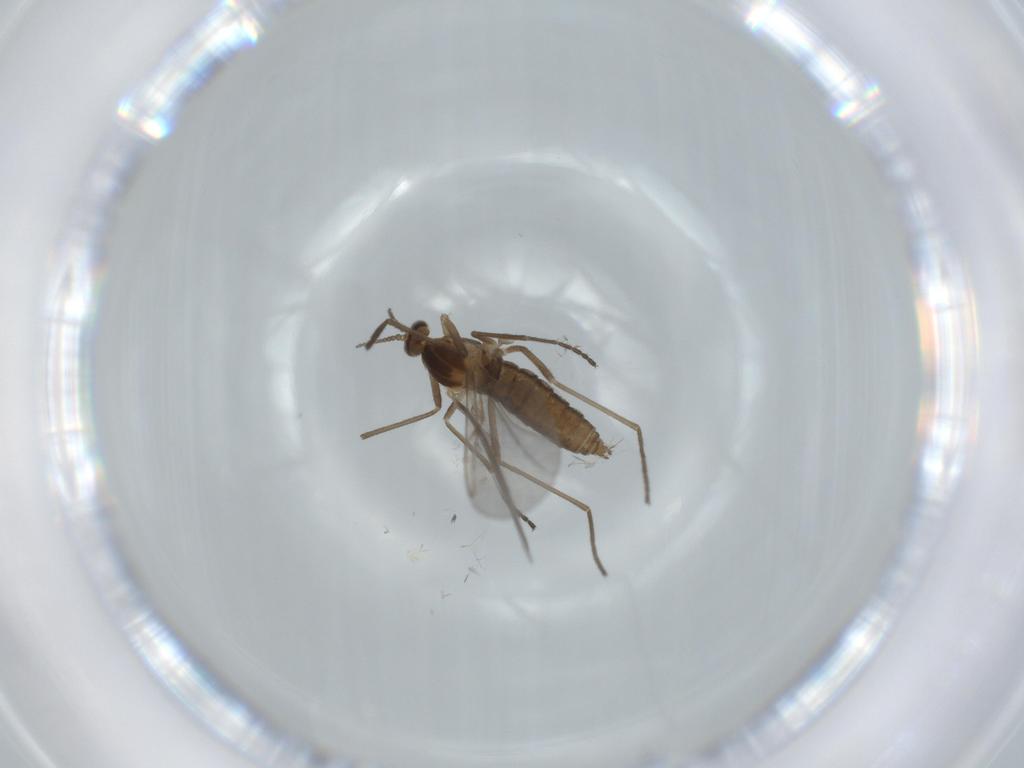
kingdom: Animalia
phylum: Arthropoda
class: Insecta
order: Diptera
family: Cecidomyiidae
